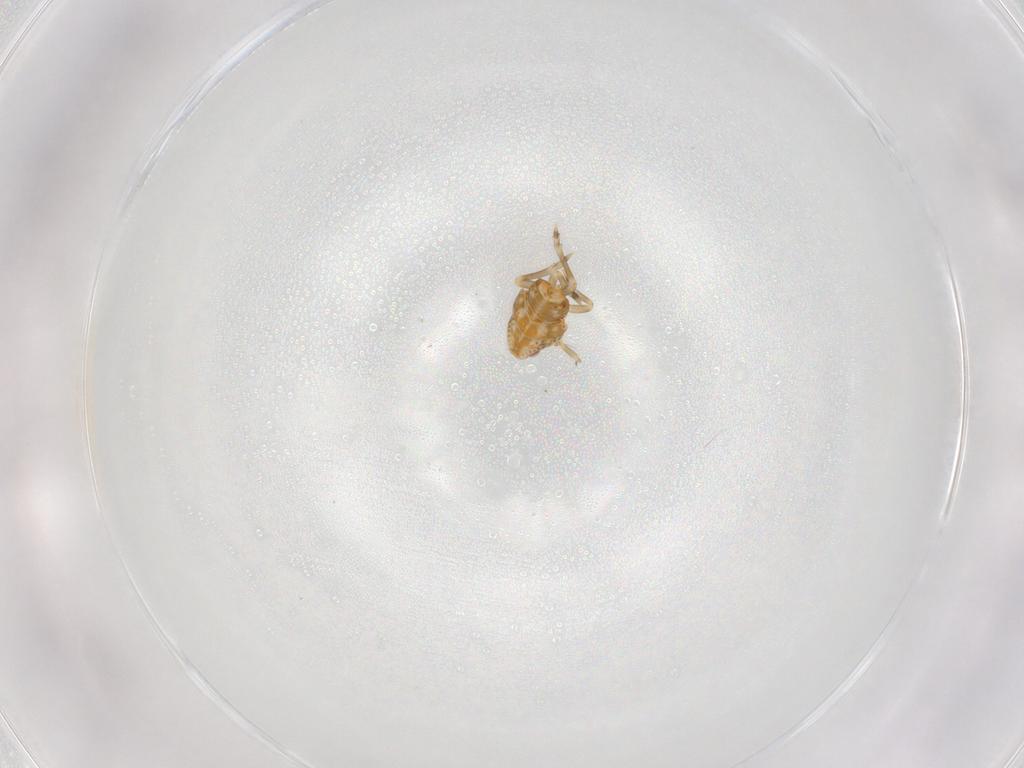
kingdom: Animalia
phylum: Arthropoda
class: Insecta
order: Hemiptera
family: Flatidae
